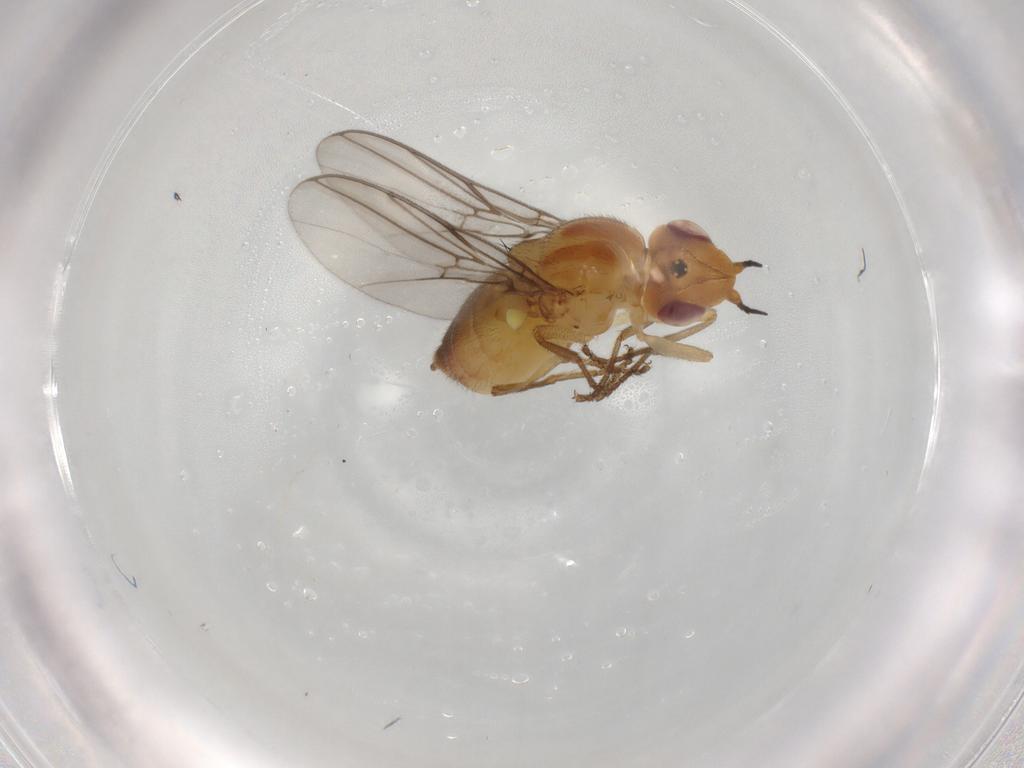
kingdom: Animalia
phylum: Arthropoda
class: Insecta
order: Diptera
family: Chloropidae
